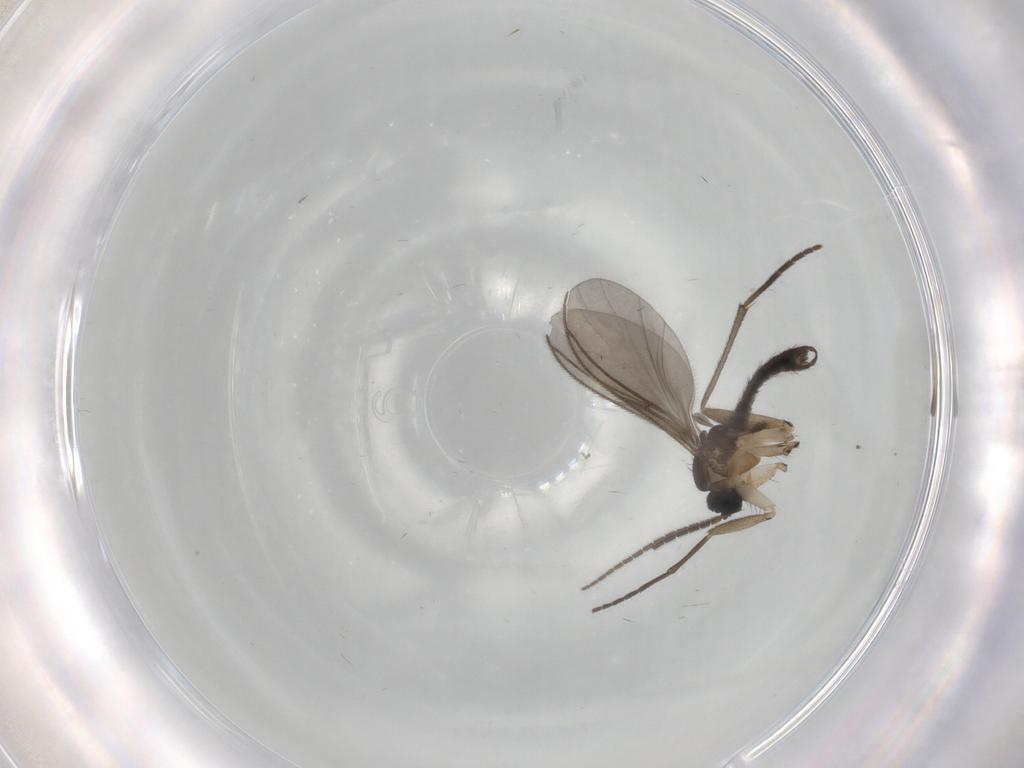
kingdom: Animalia
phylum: Arthropoda
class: Insecta
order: Diptera
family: Sciaridae
